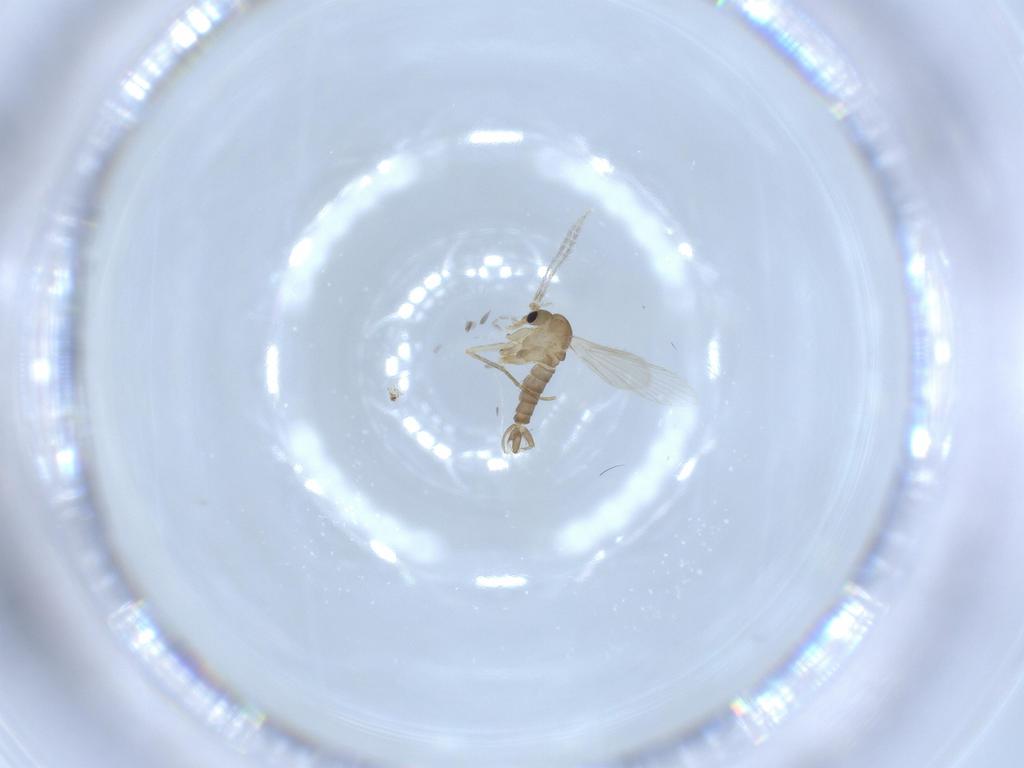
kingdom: Animalia
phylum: Arthropoda
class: Insecta
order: Diptera
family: Psychodidae
